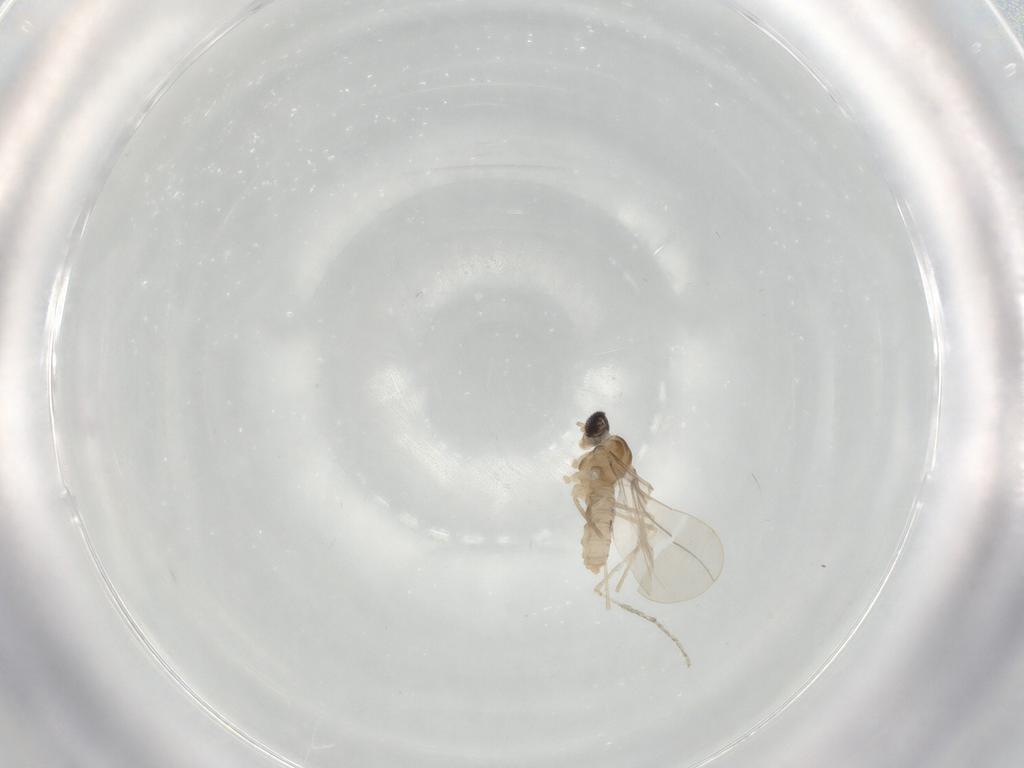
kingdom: Animalia
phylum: Arthropoda
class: Insecta
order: Diptera
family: Cecidomyiidae
